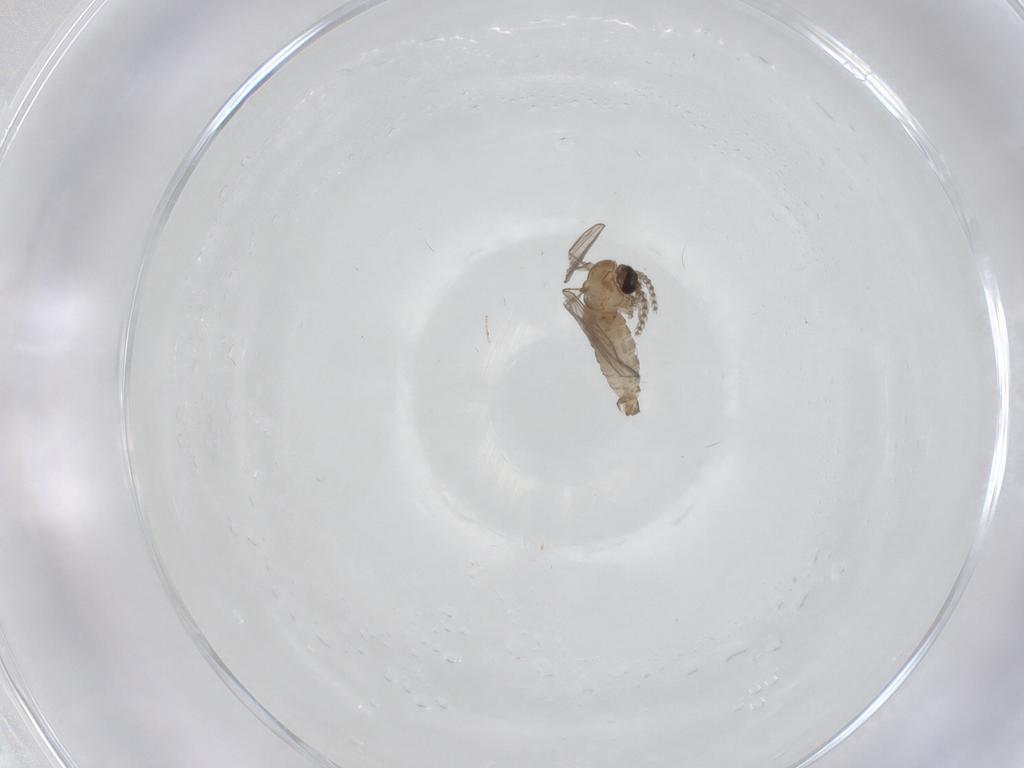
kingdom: Animalia
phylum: Arthropoda
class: Insecta
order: Diptera
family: Psychodidae
